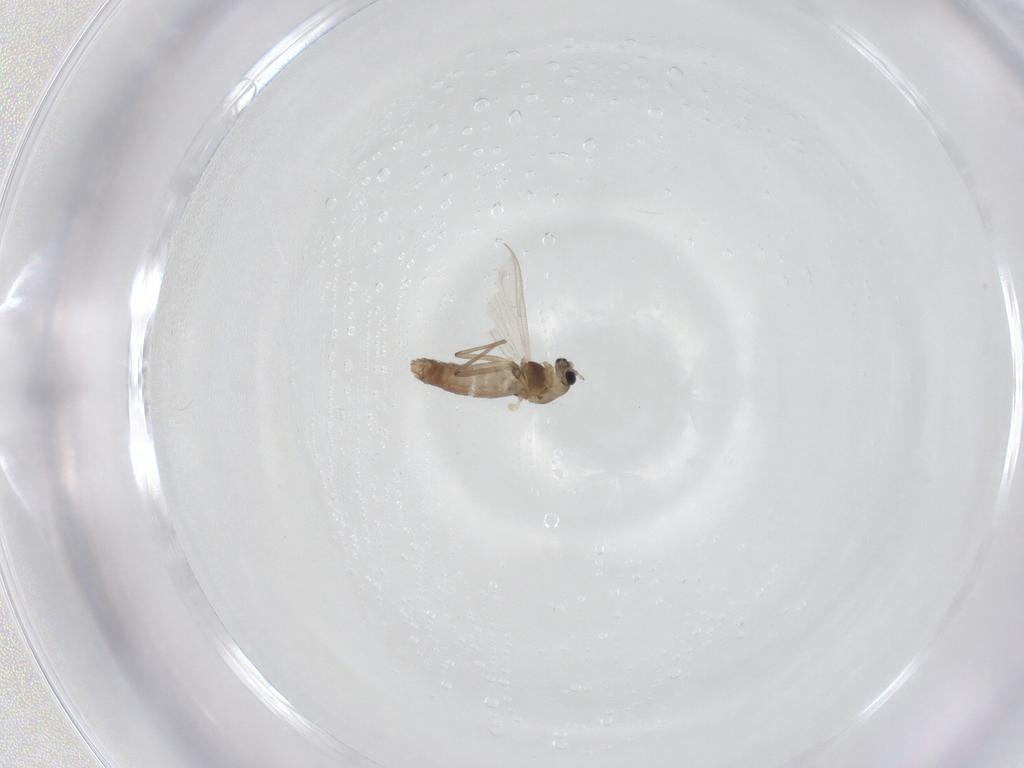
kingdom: Animalia
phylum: Arthropoda
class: Insecta
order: Diptera
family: Chironomidae
